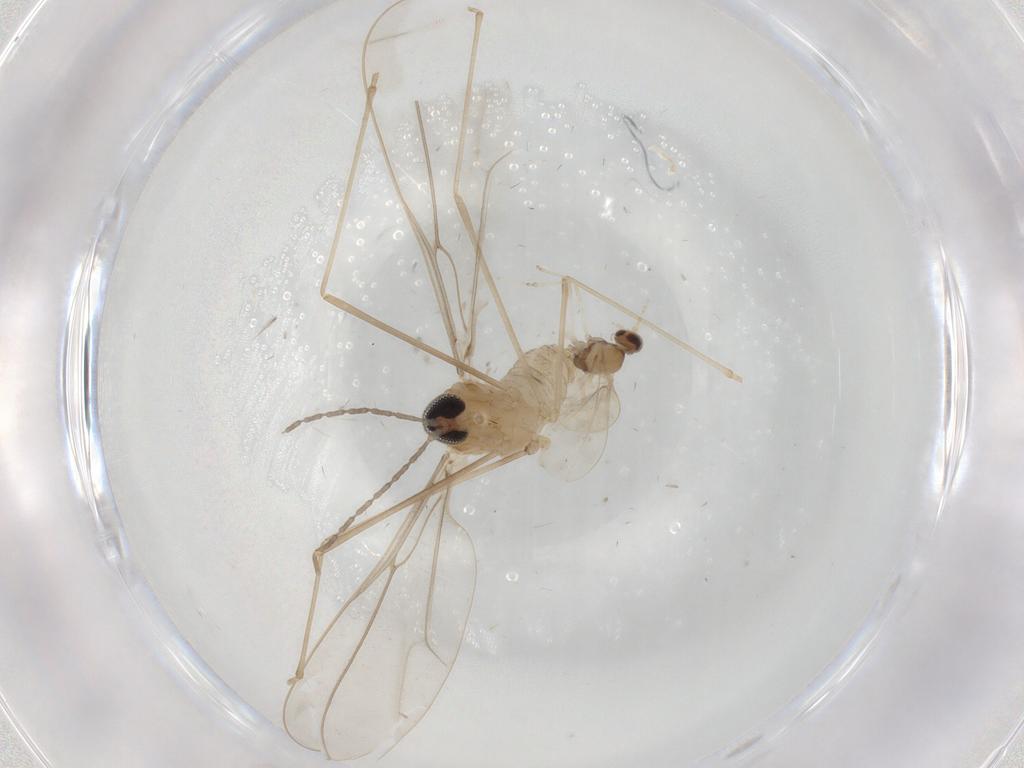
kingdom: Animalia
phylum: Arthropoda
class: Insecta
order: Diptera
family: Cecidomyiidae
